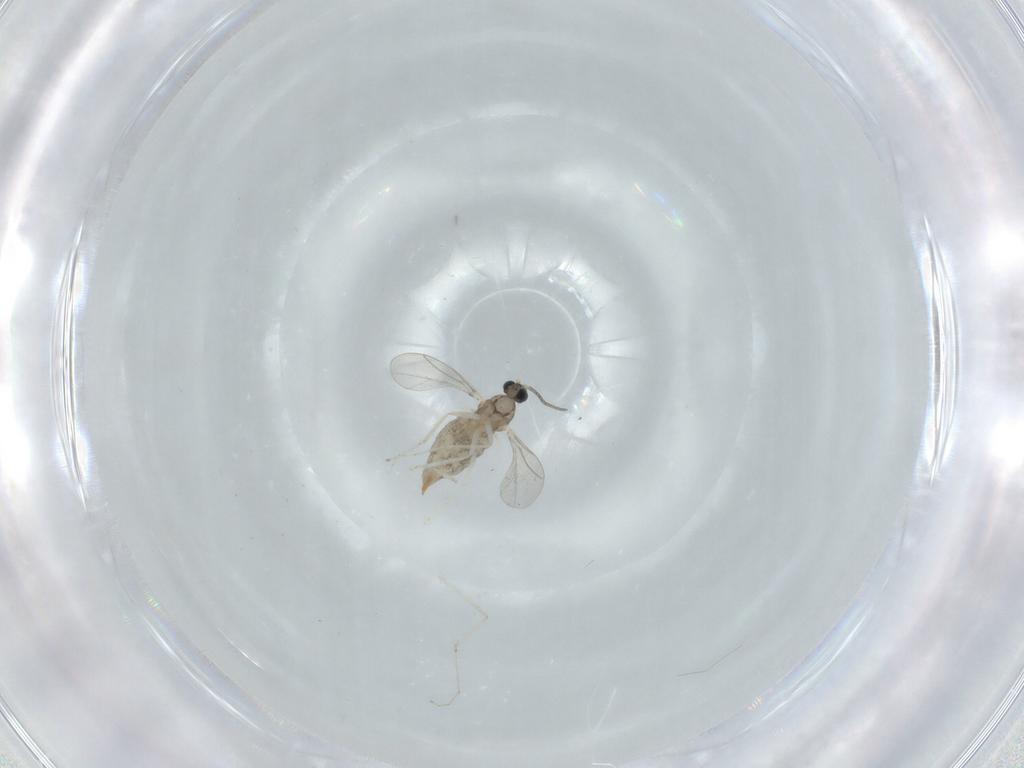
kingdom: Animalia
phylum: Arthropoda
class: Insecta
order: Diptera
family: Cecidomyiidae
